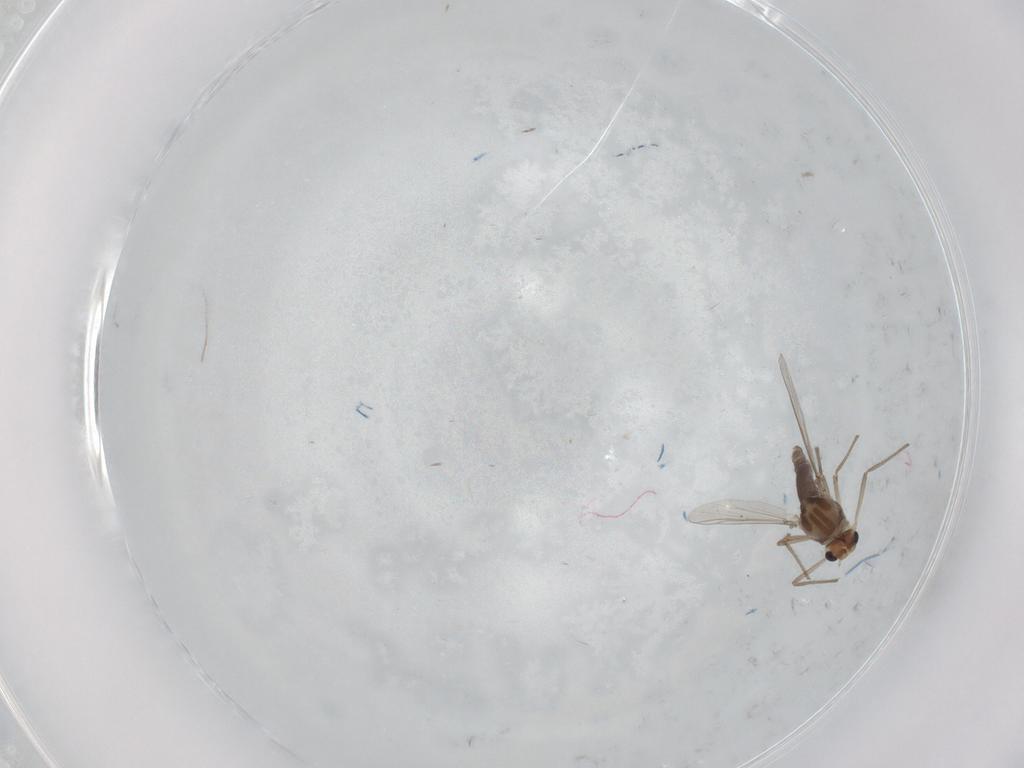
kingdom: Animalia
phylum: Arthropoda
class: Insecta
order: Diptera
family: Chironomidae
